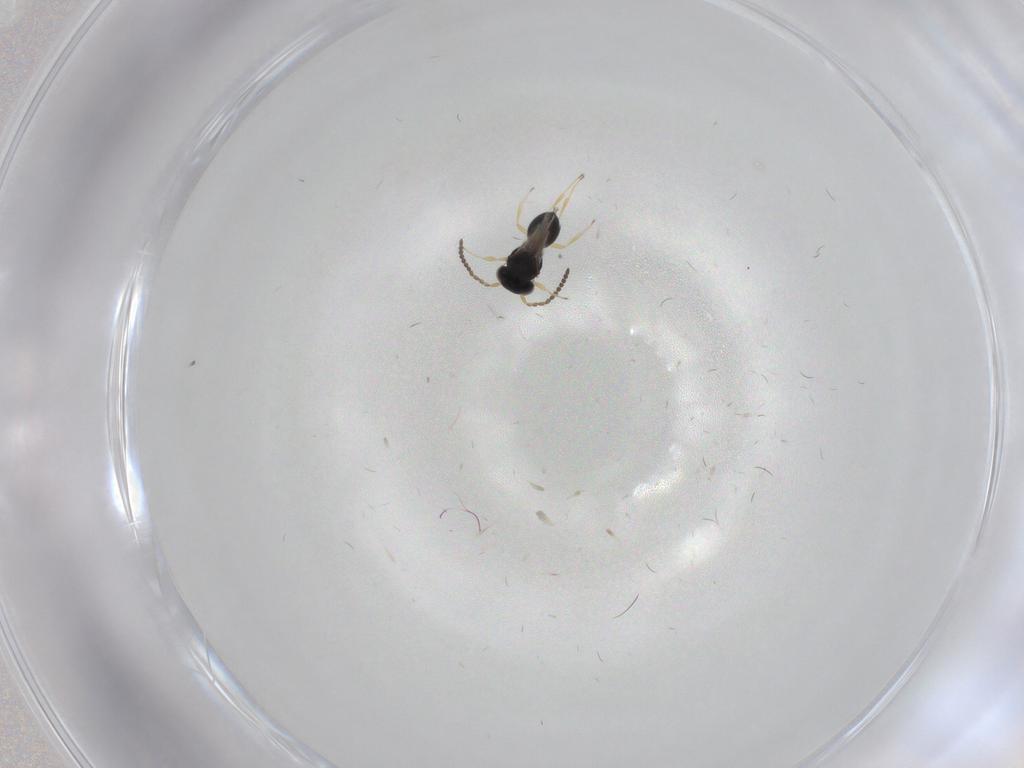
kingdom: Animalia
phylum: Arthropoda
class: Insecta
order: Hymenoptera
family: Scelionidae
